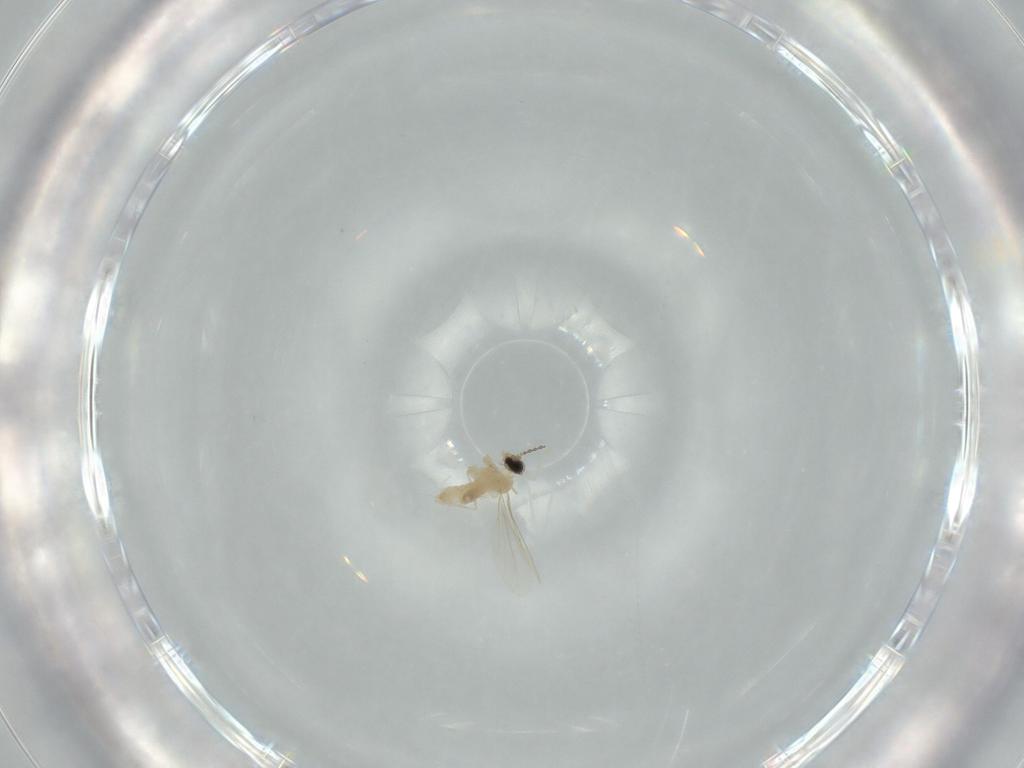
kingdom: Animalia
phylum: Arthropoda
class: Insecta
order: Diptera
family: Cecidomyiidae
